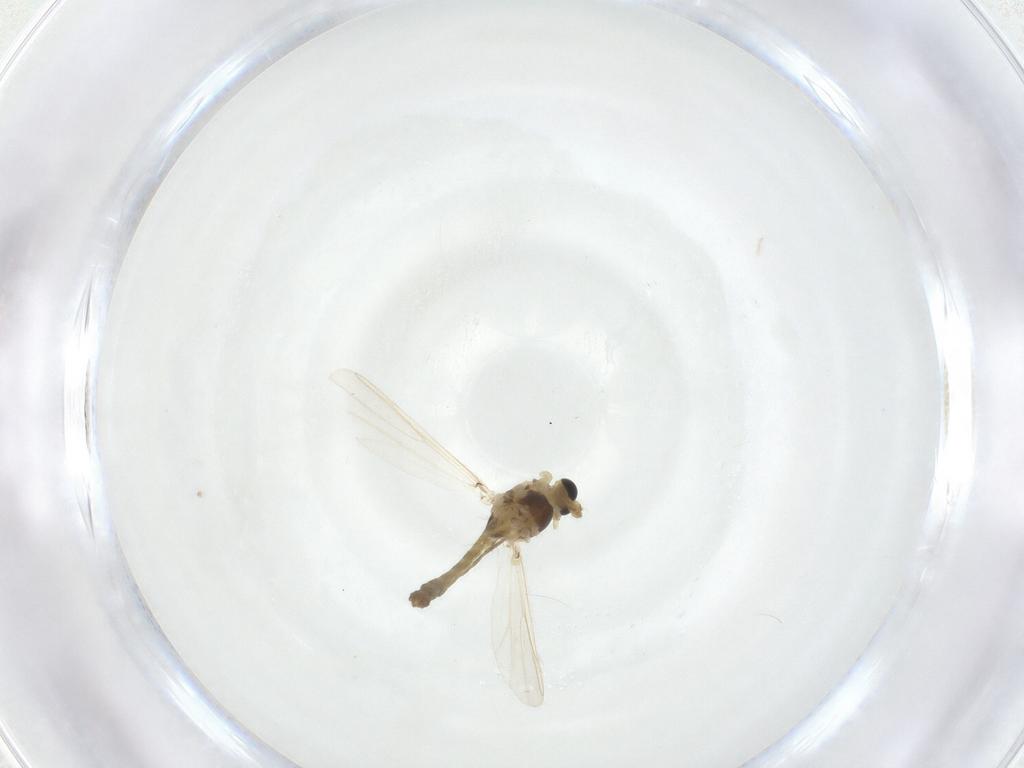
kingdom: Animalia
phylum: Arthropoda
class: Insecta
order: Diptera
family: Chironomidae
